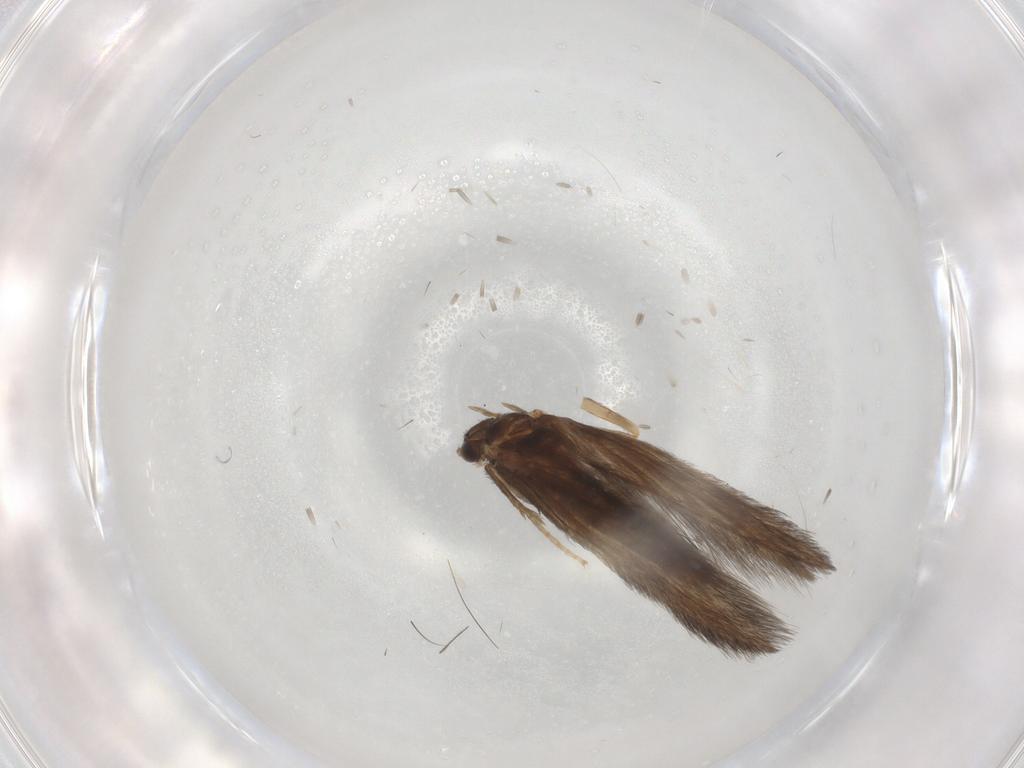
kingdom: Animalia
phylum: Arthropoda
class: Insecta
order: Trichoptera
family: Hydroptilidae
